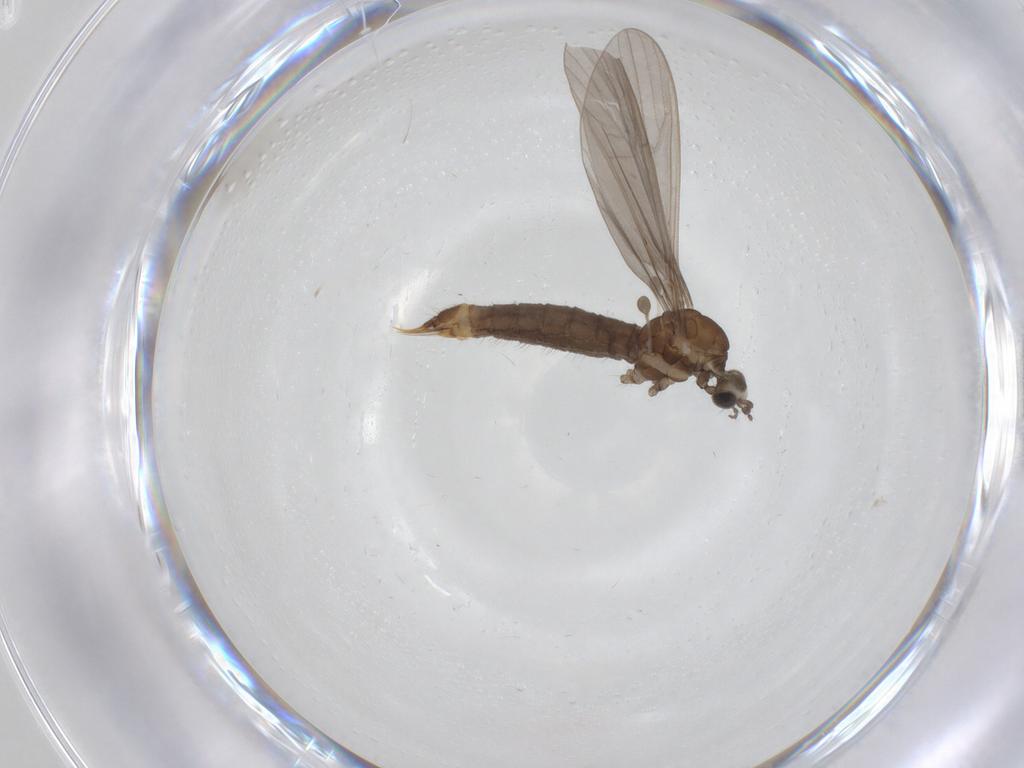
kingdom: Animalia
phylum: Arthropoda
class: Insecta
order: Diptera
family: Limoniidae
